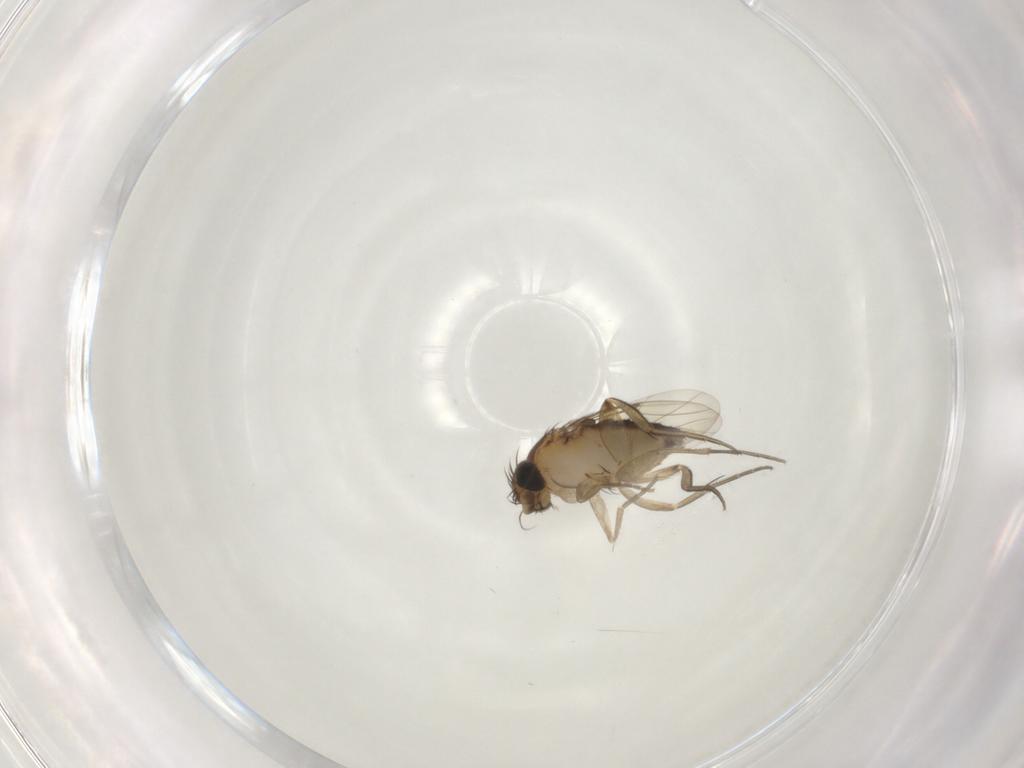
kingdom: Animalia
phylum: Arthropoda
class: Insecta
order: Diptera
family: Phoridae
